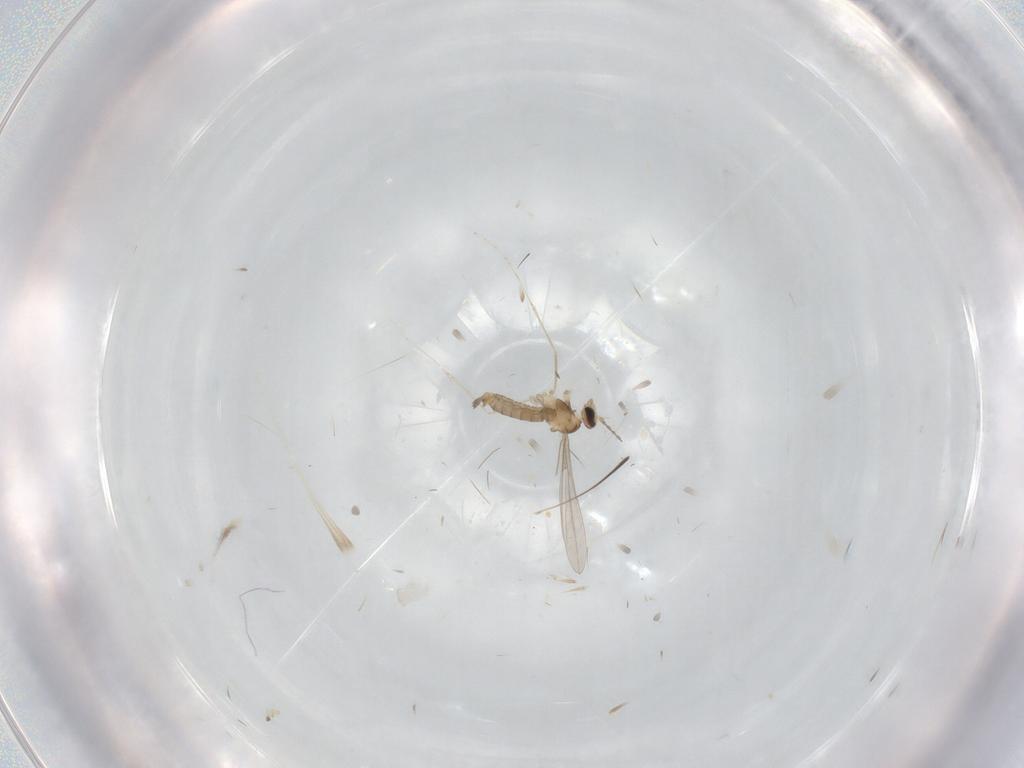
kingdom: Animalia
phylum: Arthropoda
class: Insecta
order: Diptera
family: Cecidomyiidae
